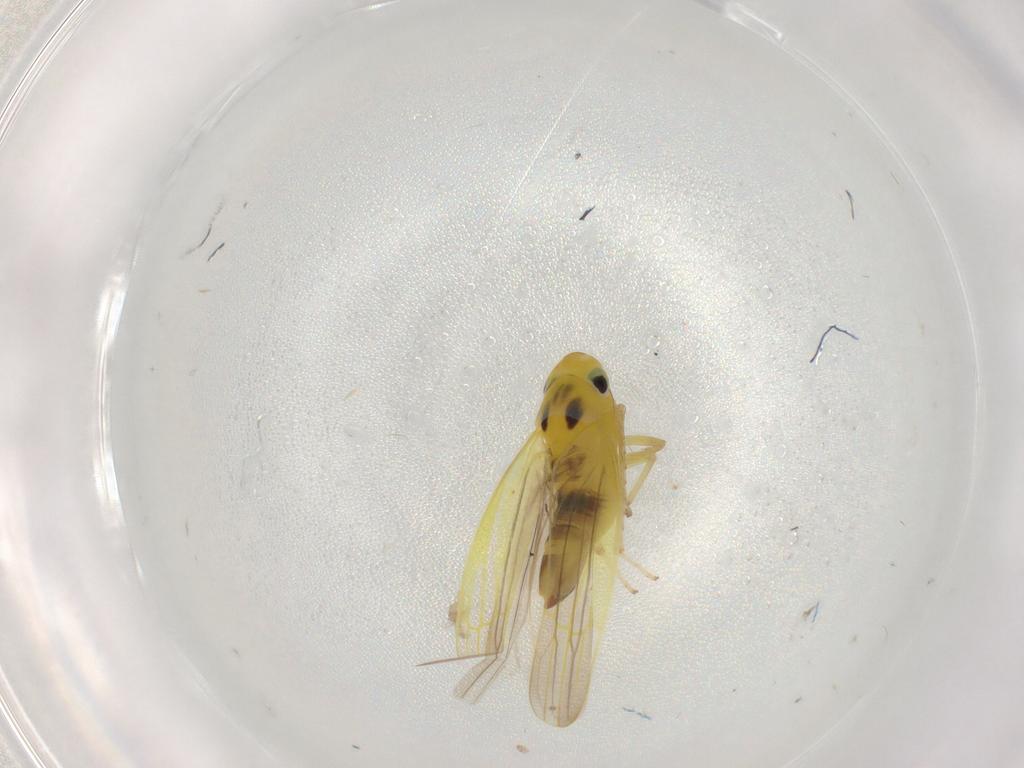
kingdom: Animalia
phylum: Arthropoda
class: Insecta
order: Hemiptera
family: Cicadellidae
